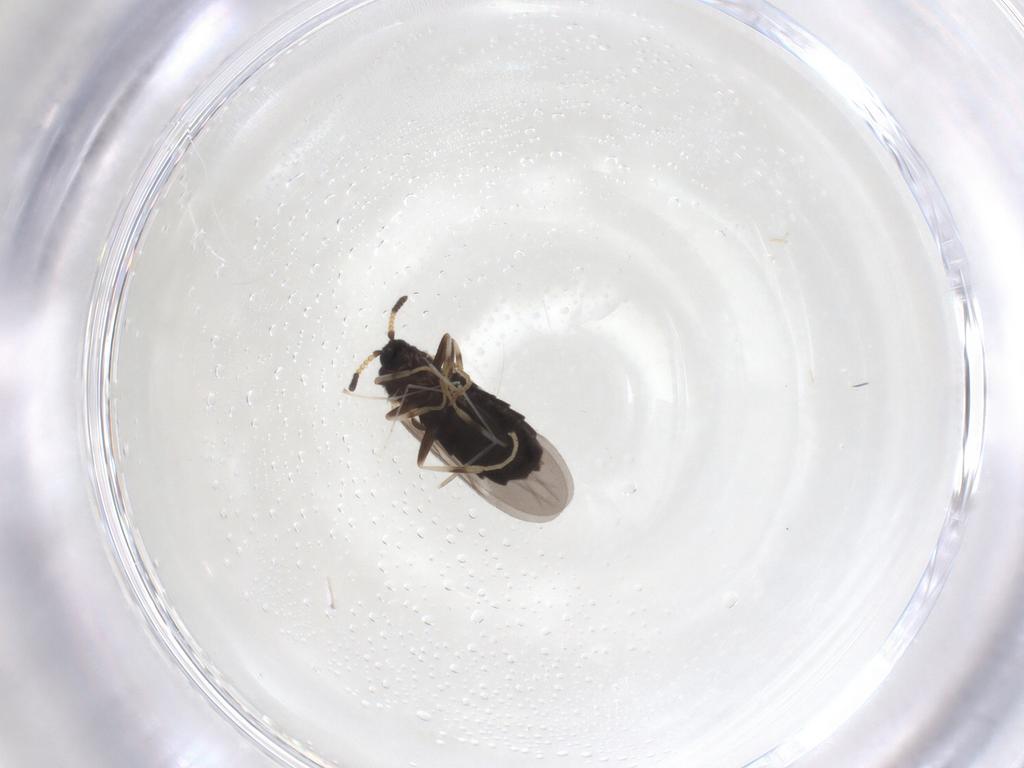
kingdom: Animalia
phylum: Arthropoda
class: Insecta
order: Diptera
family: Scatopsidae
